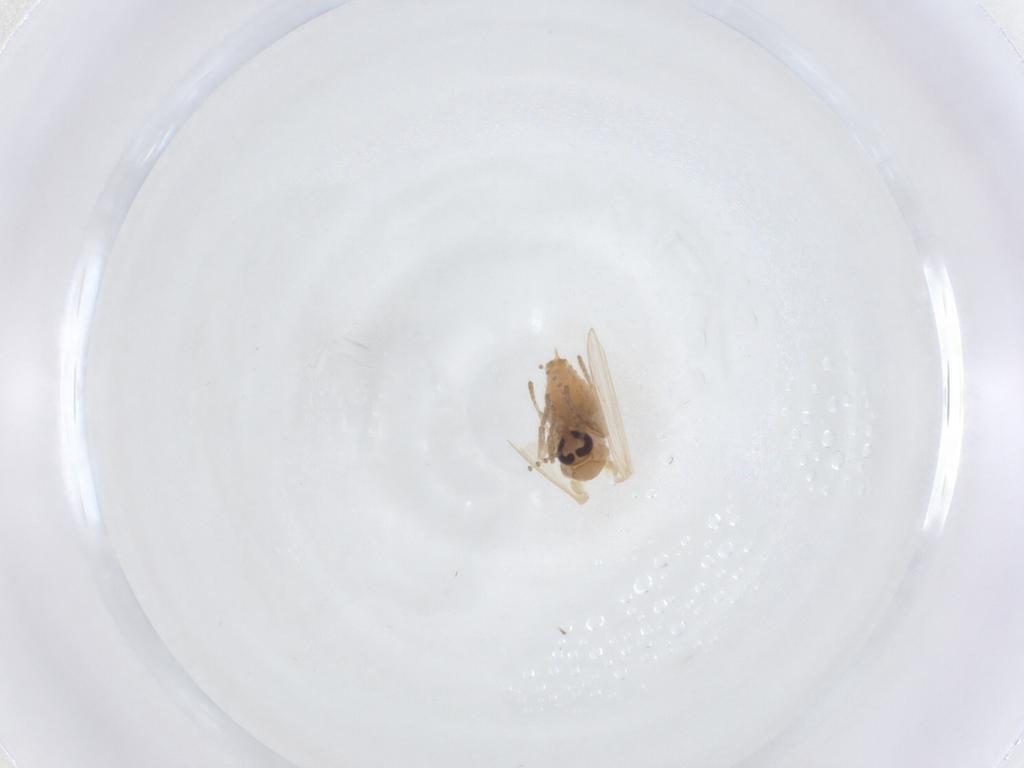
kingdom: Animalia
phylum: Arthropoda
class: Insecta
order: Diptera
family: Psychodidae
